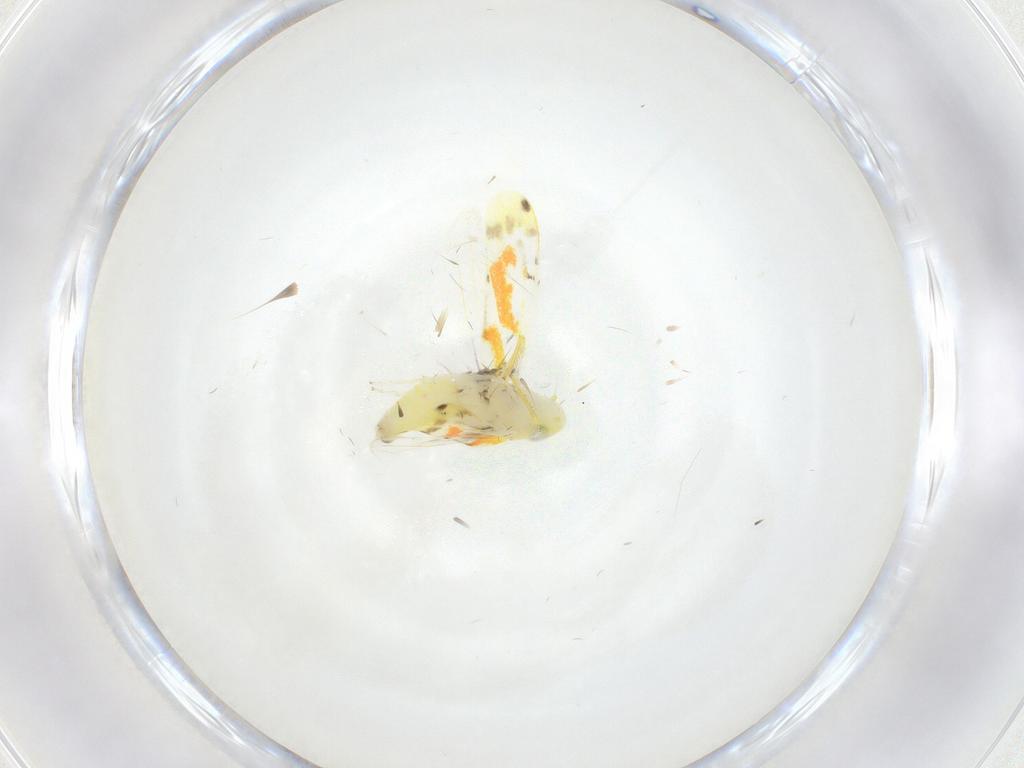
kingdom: Animalia
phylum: Arthropoda
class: Insecta
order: Hemiptera
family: Cicadellidae
